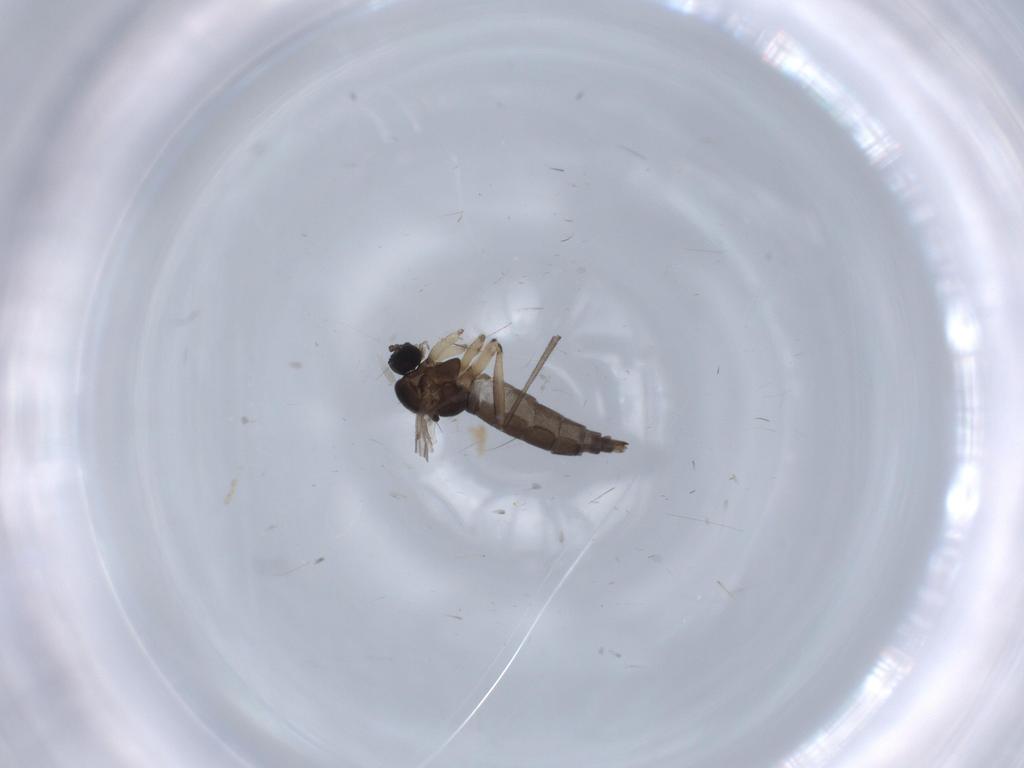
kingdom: Animalia
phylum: Arthropoda
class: Insecta
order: Diptera
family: Sciaridae
